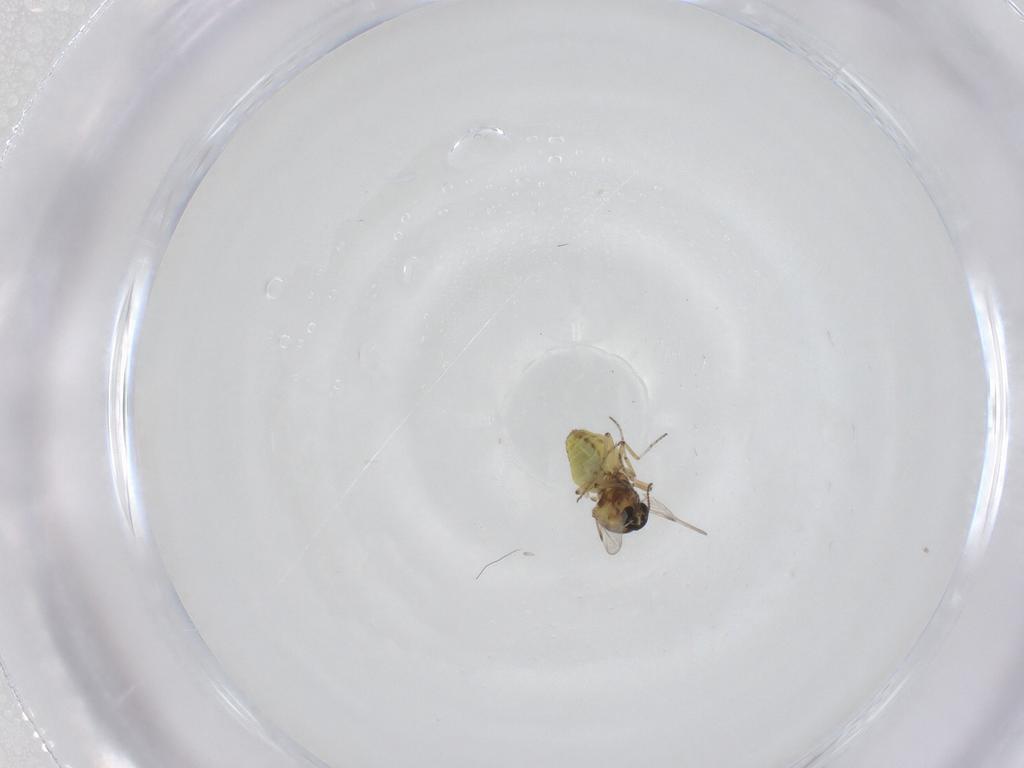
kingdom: Animalia
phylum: Arthropoda
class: Insecta
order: Diptera
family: Ceratopogonidae
